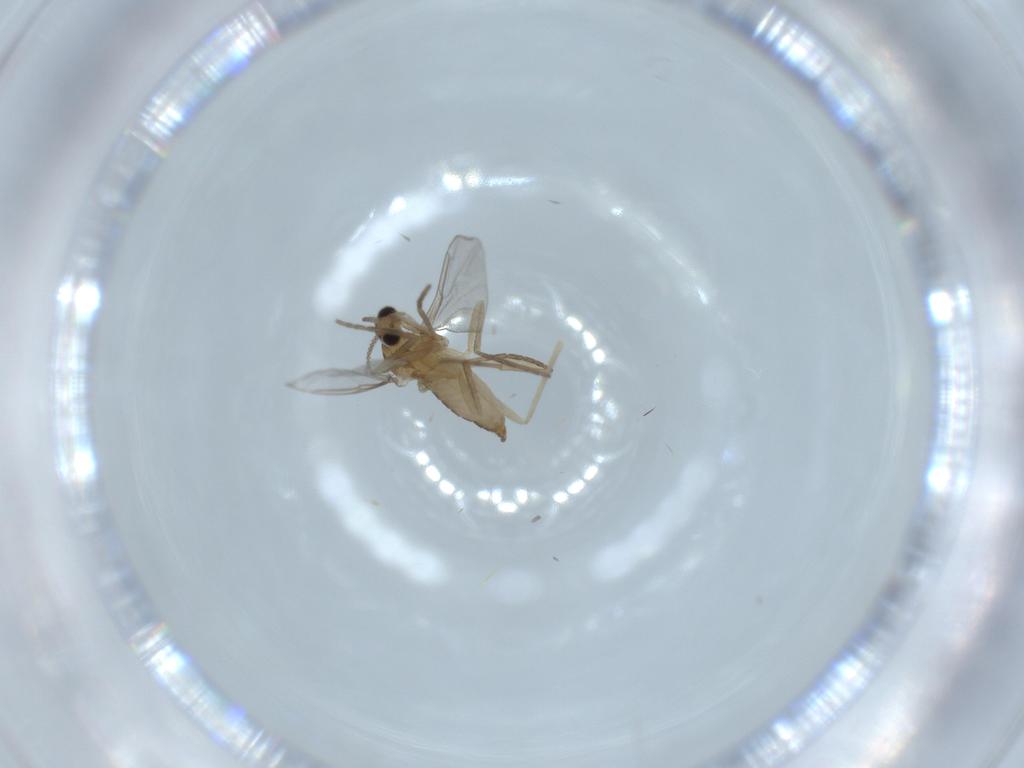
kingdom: Animalia
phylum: Arthropoda
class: Insecta
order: Diptera
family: Cecidomyiidae
